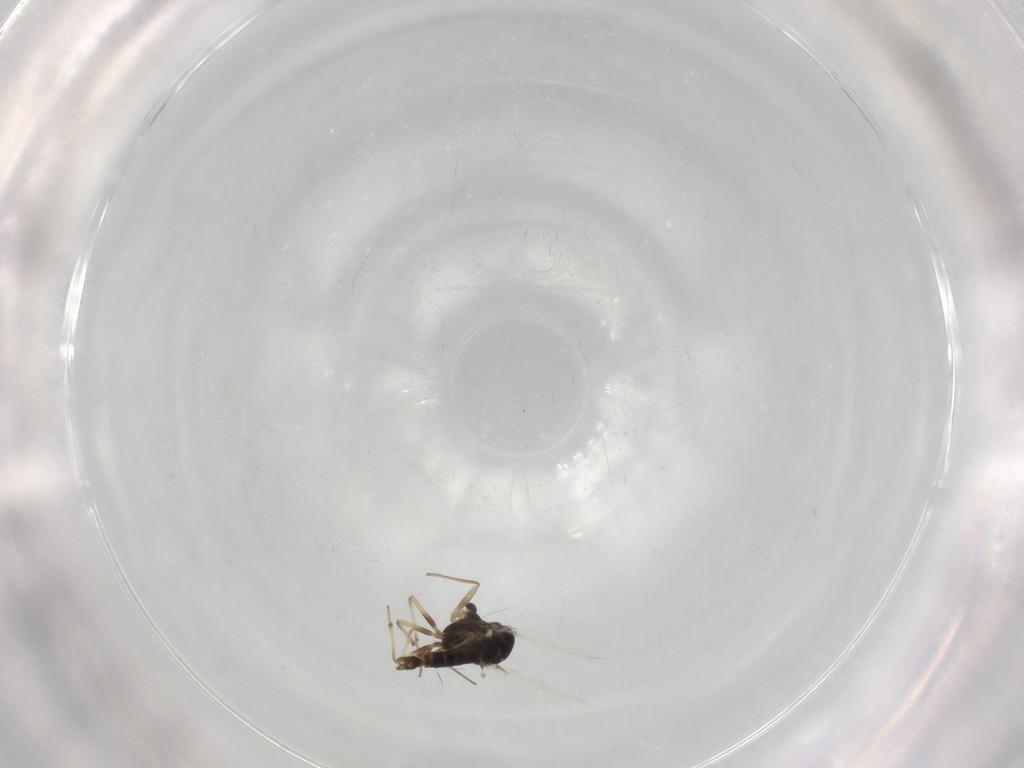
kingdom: Animalia
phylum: Arthropoda
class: Insecta
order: Diptera
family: Chironomidae
